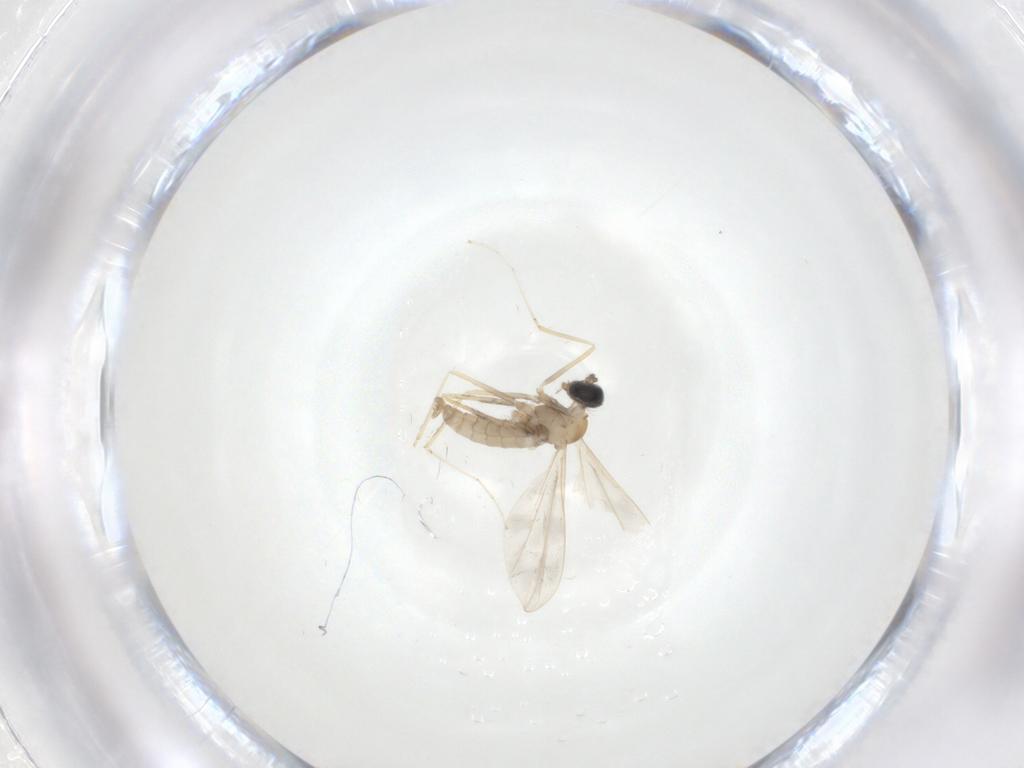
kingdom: Animalia
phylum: Arthropoda
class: Insecta
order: Diptera
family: Cecidomyiidae
